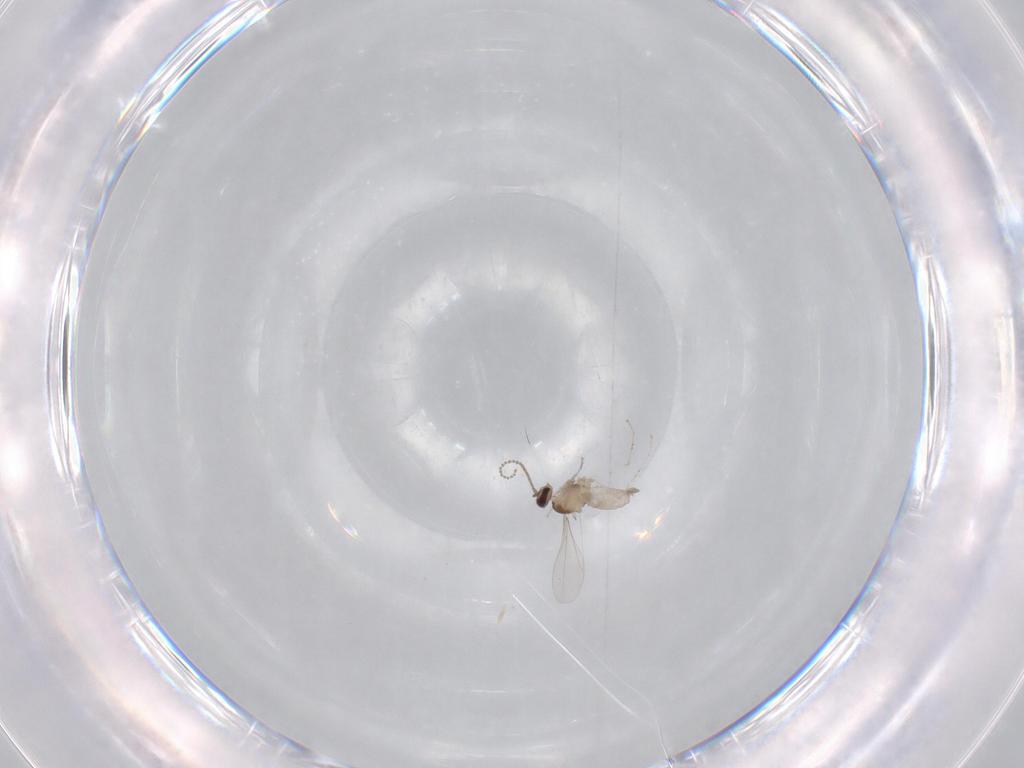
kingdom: Animalia
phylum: Arthropoda
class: Insecta
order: Diptera
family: Cecidomyiidae
